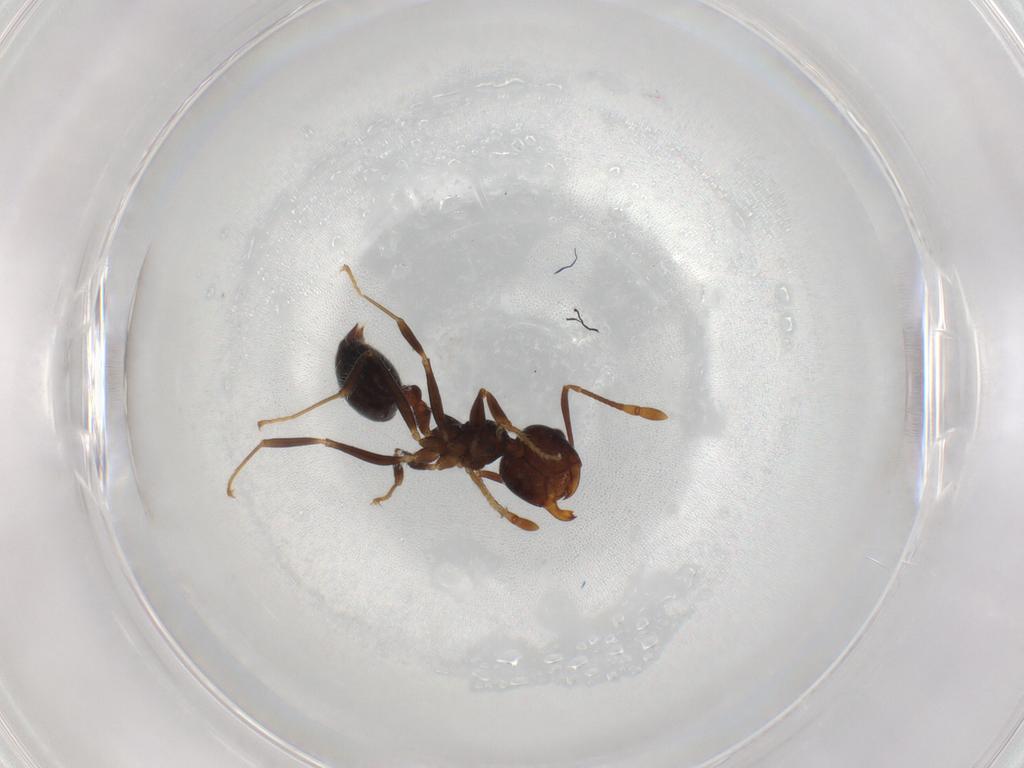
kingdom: Animalia
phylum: Arthropoda
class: Insecta
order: Hymenoptera
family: Formicidae
